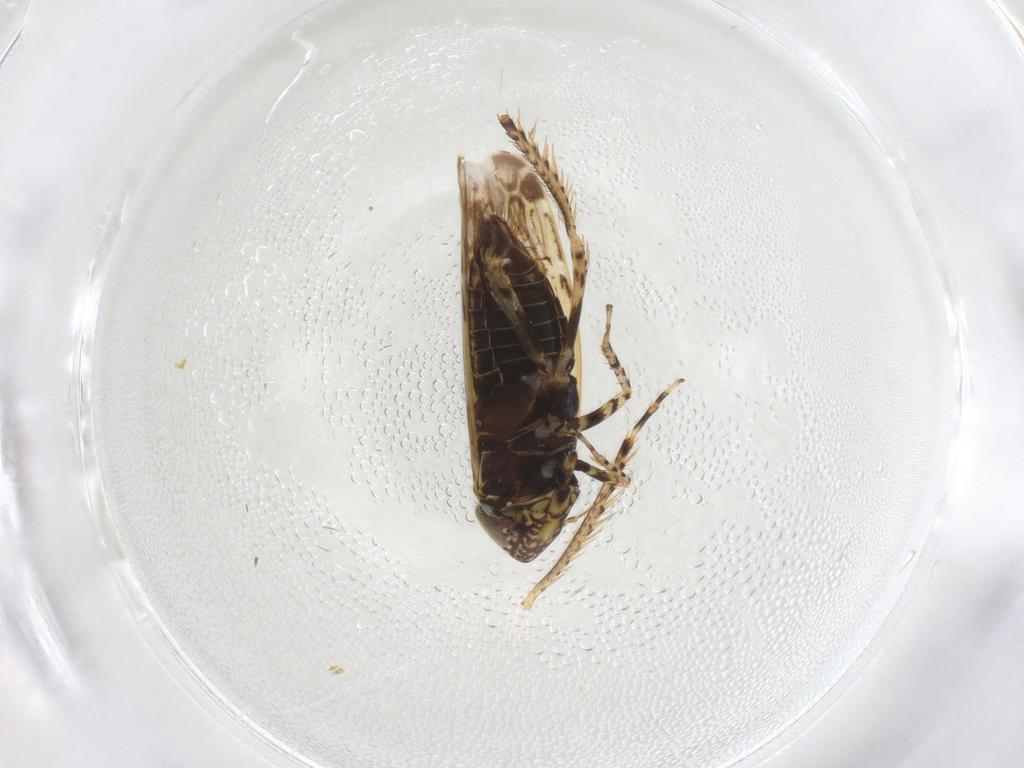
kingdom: Animalia
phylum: Arthropoda
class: Insecta
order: Hemiptera
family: Cicadellidae
